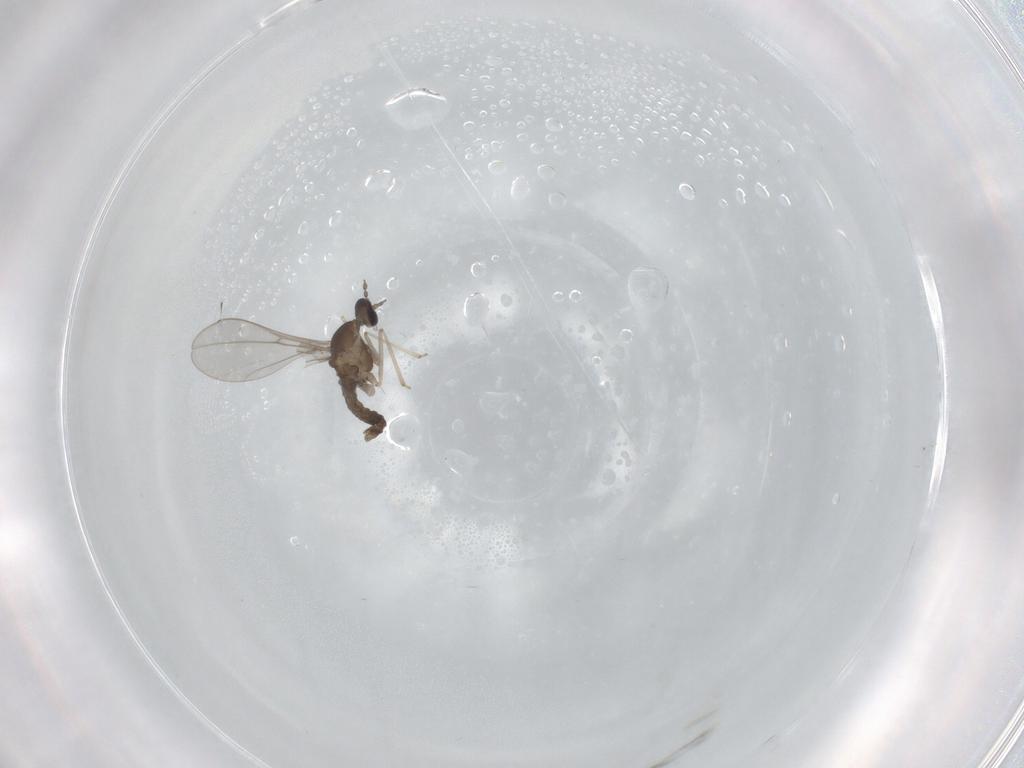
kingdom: Animalia
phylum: Arthropoda
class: Insecta
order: Diptera
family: Cecidomyiidae
